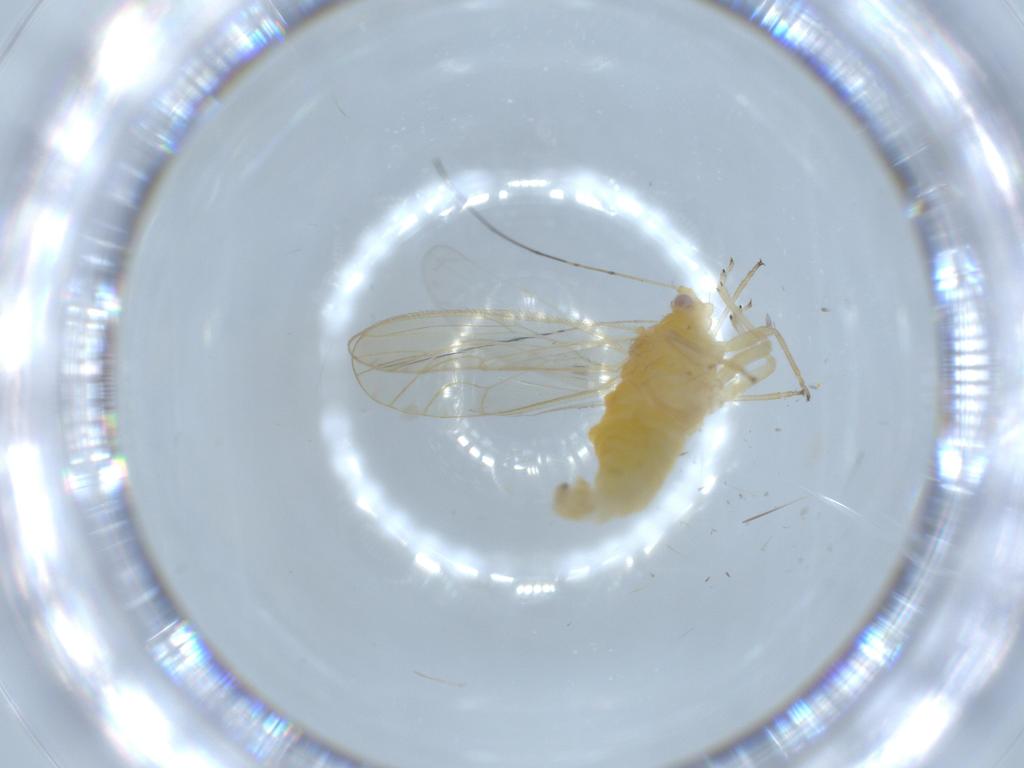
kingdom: Animalia
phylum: Arthropoda
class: Insecta
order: Hemiptera
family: Psyllidae
